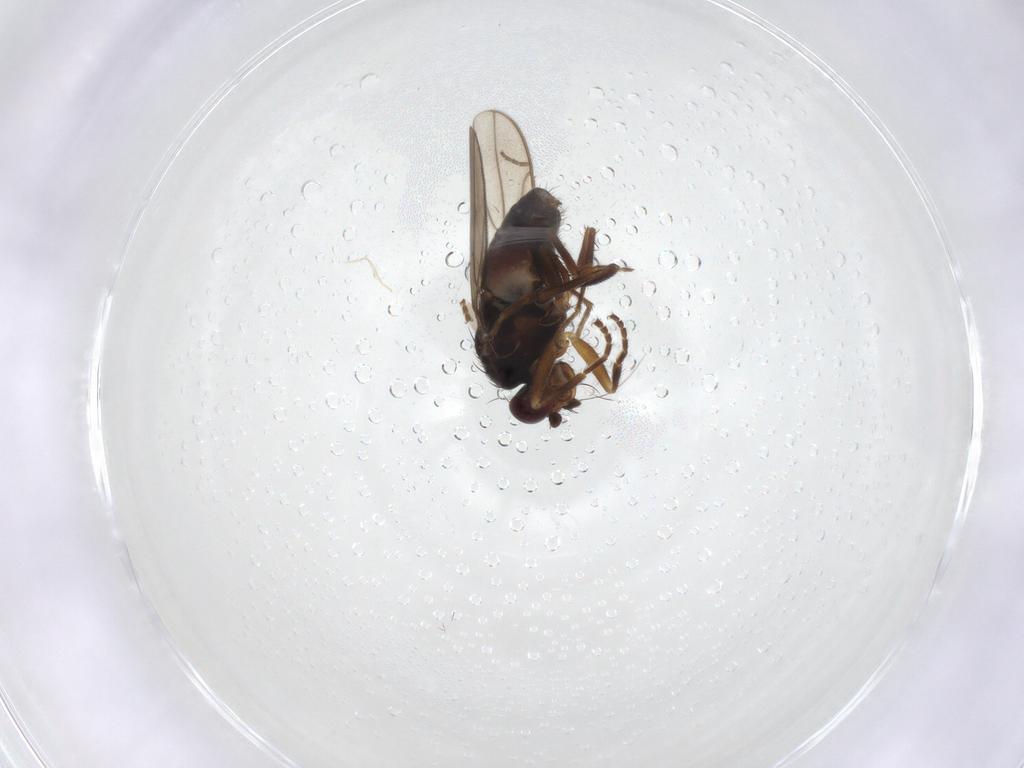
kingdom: Animalia
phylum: Arthropoda
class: Insecta
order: Diptera
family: Sphaeroceridae
